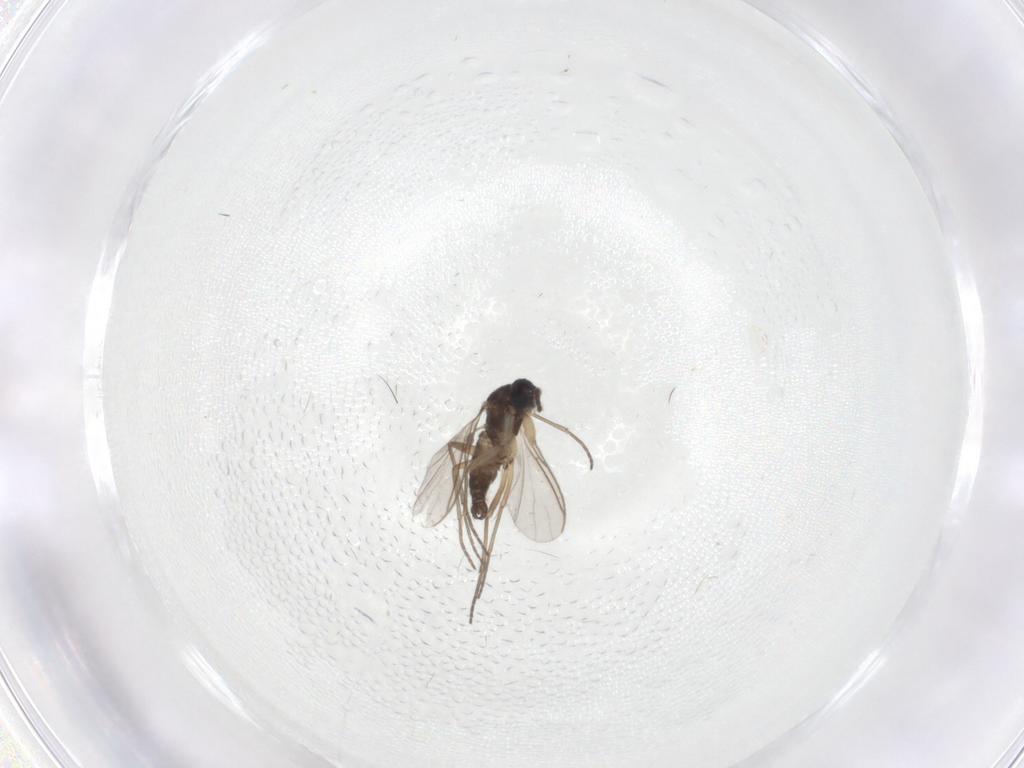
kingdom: Animalia
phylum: Arthropoda
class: Insecta
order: Diptera
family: Sciaridae
